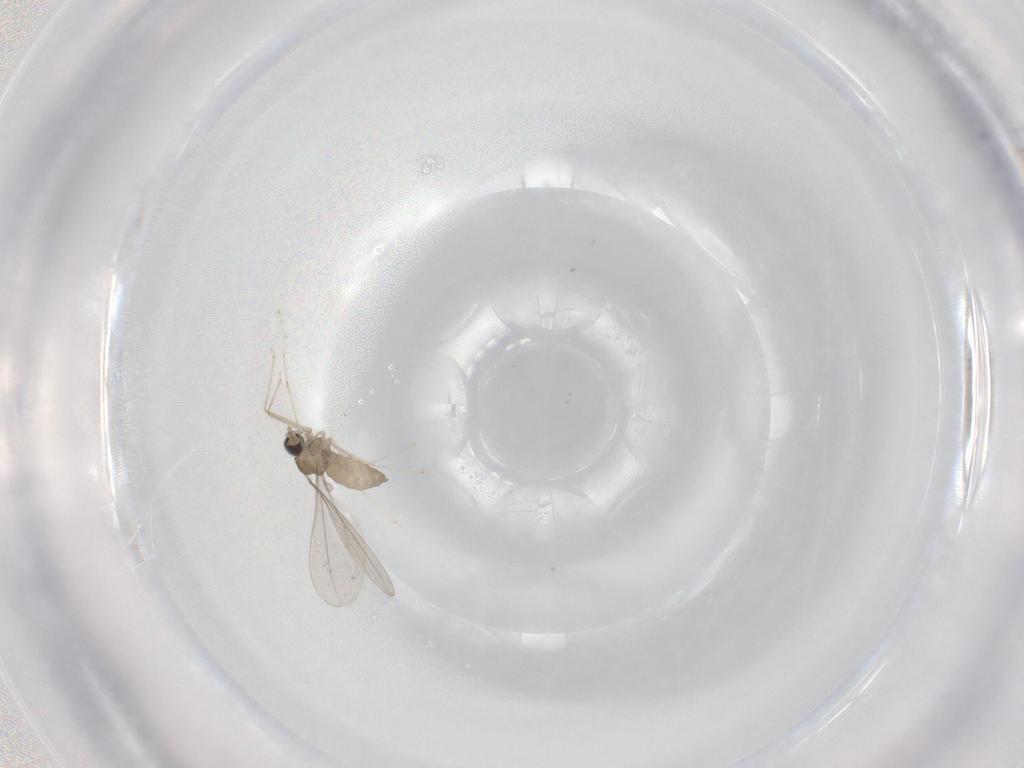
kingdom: Animalia
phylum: Arthropoda
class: Insecta
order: Diptera
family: Cecidomyiidae
